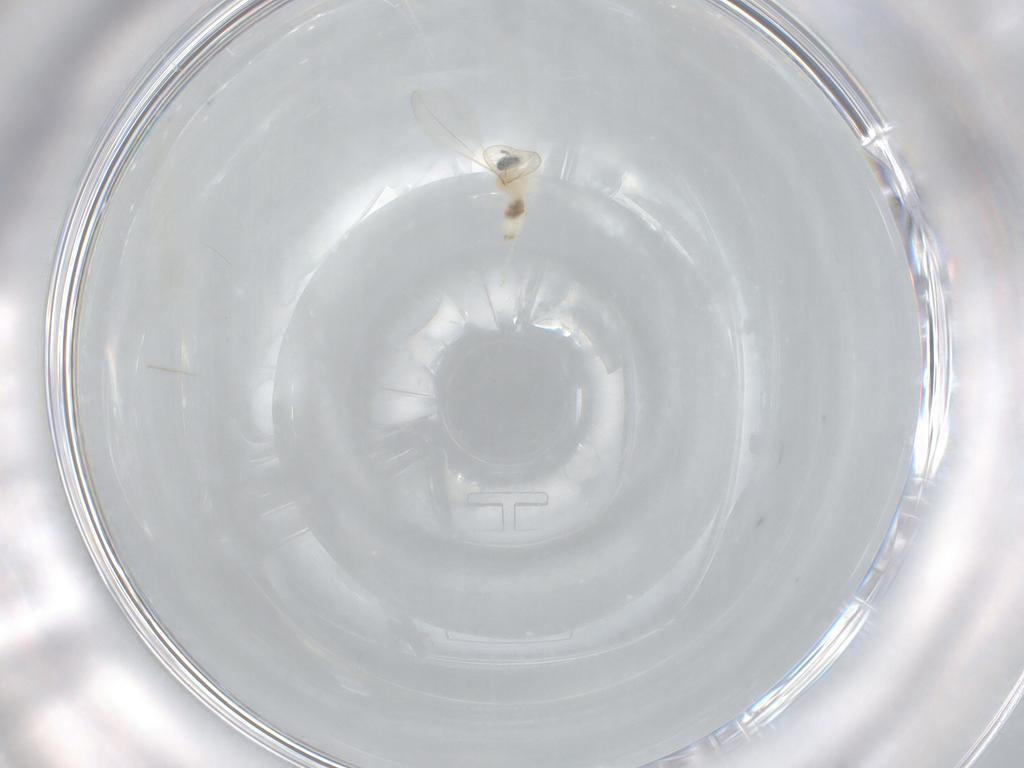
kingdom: Animalia
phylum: Arthropoda
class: Insecta
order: Diptera
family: Cecidomyiidae
